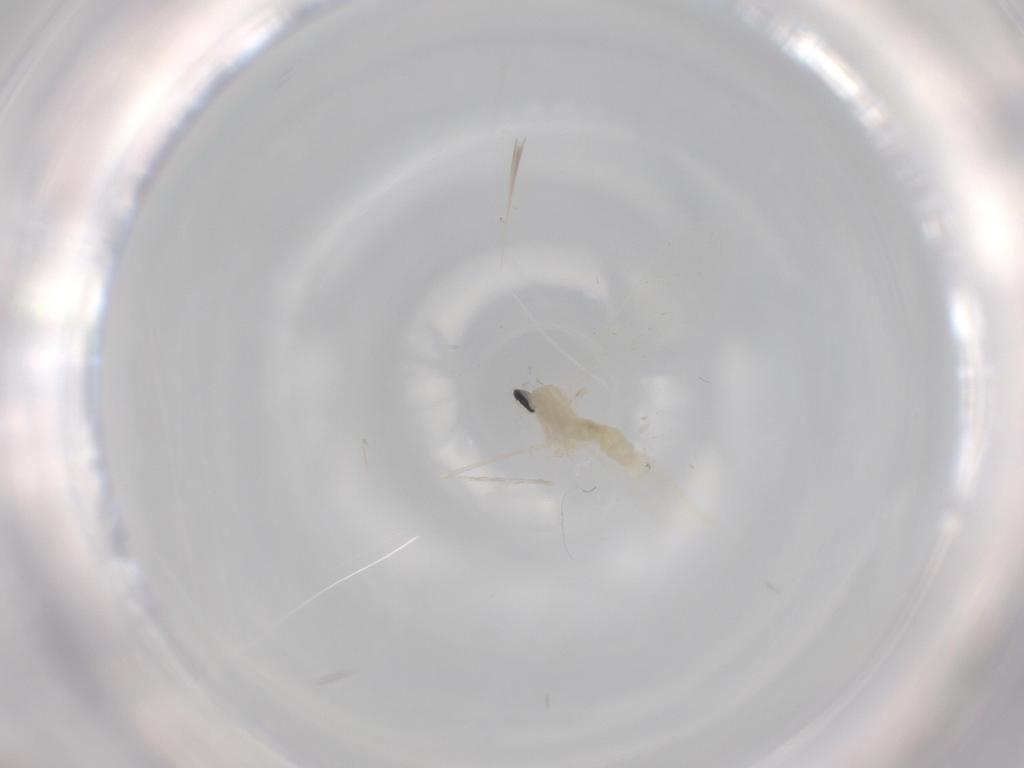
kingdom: Animalia
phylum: Arthropoda
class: Insecta
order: Diptera
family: Cecidomyiidae
